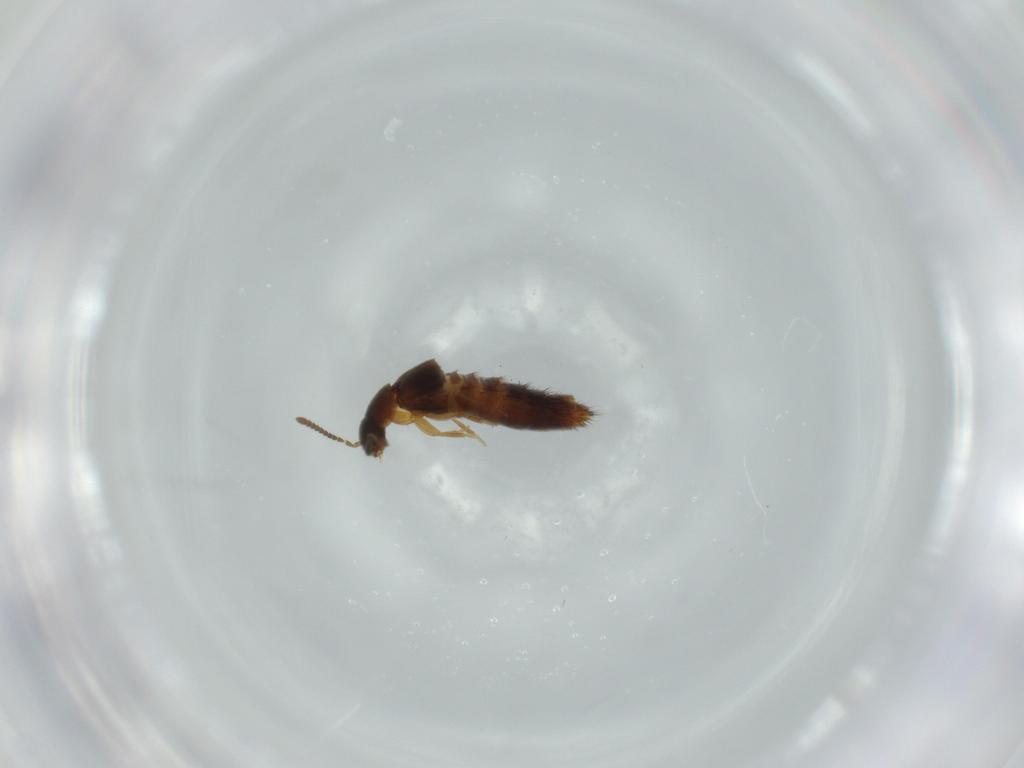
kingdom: Animalia
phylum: Arthropoda
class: Insecta
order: Coleoptera
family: Staphylinidae
